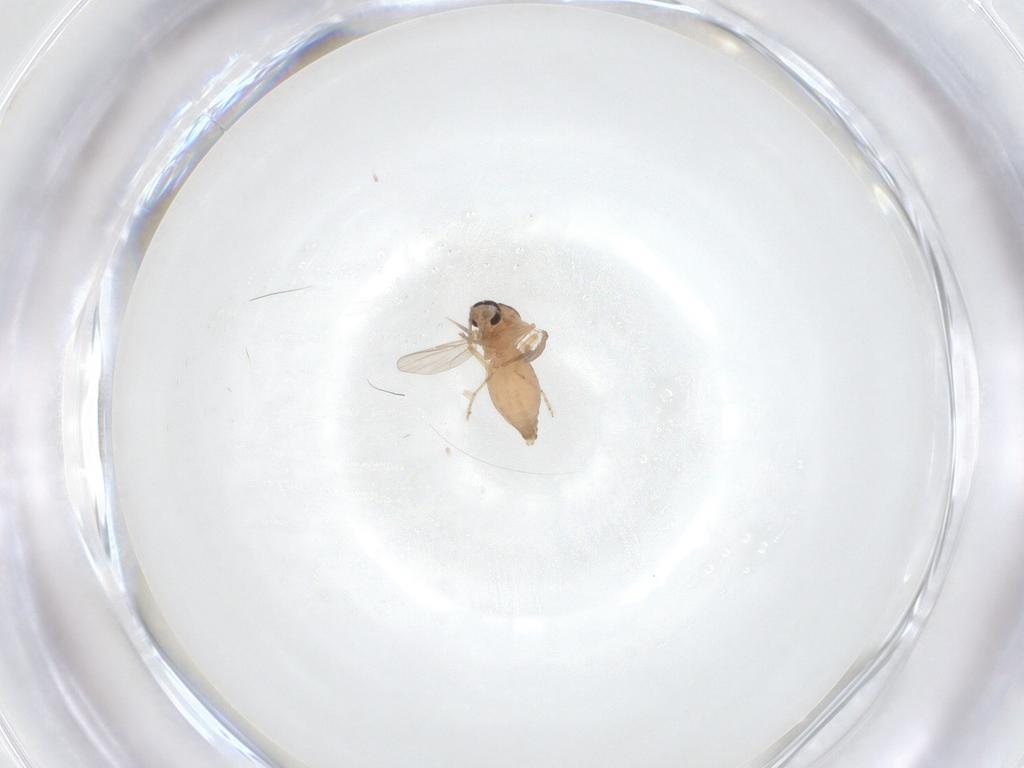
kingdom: Animalia
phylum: Arthropoda
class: Insecta
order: Diptera
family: Ceratopogonidae
